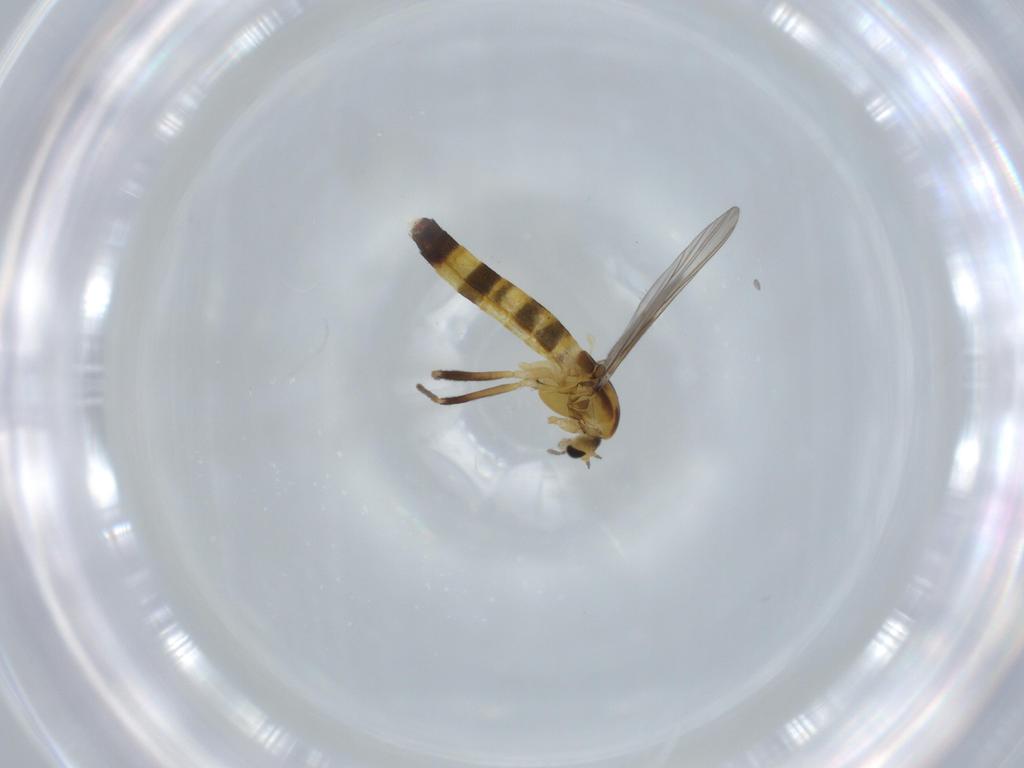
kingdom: Animalia
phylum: Arthropoda
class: Insecta
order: Diptera
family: Chironomidae
